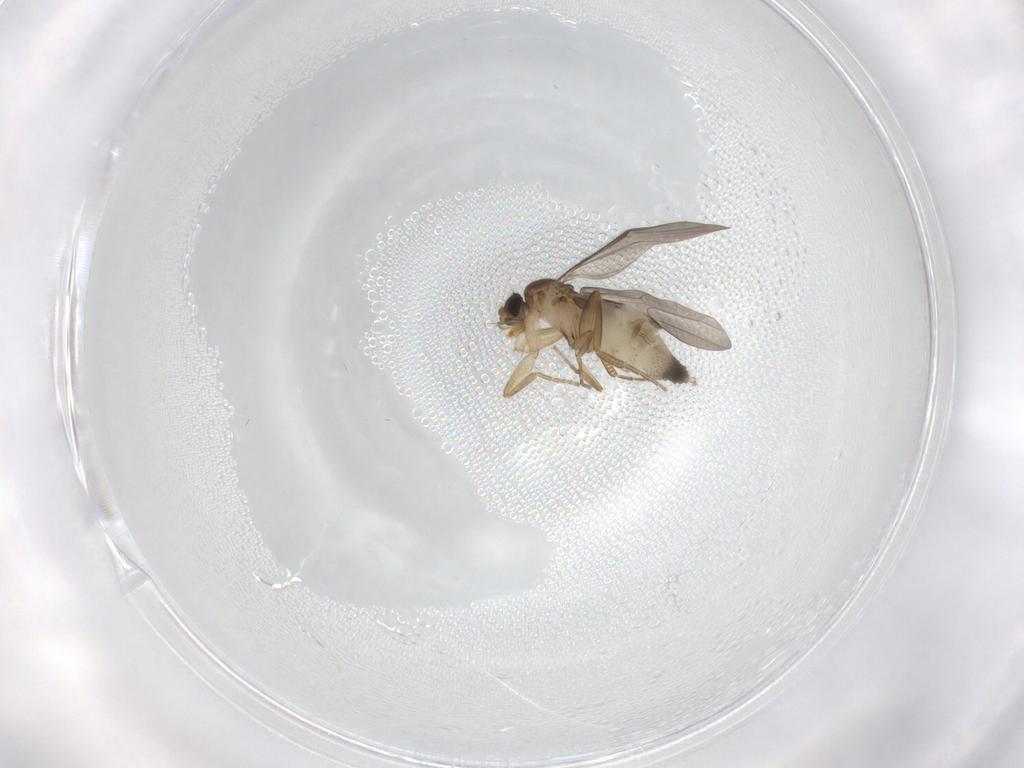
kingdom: Animalia
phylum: Arthropoda
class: Insecta
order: Diptera
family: Phoridae
